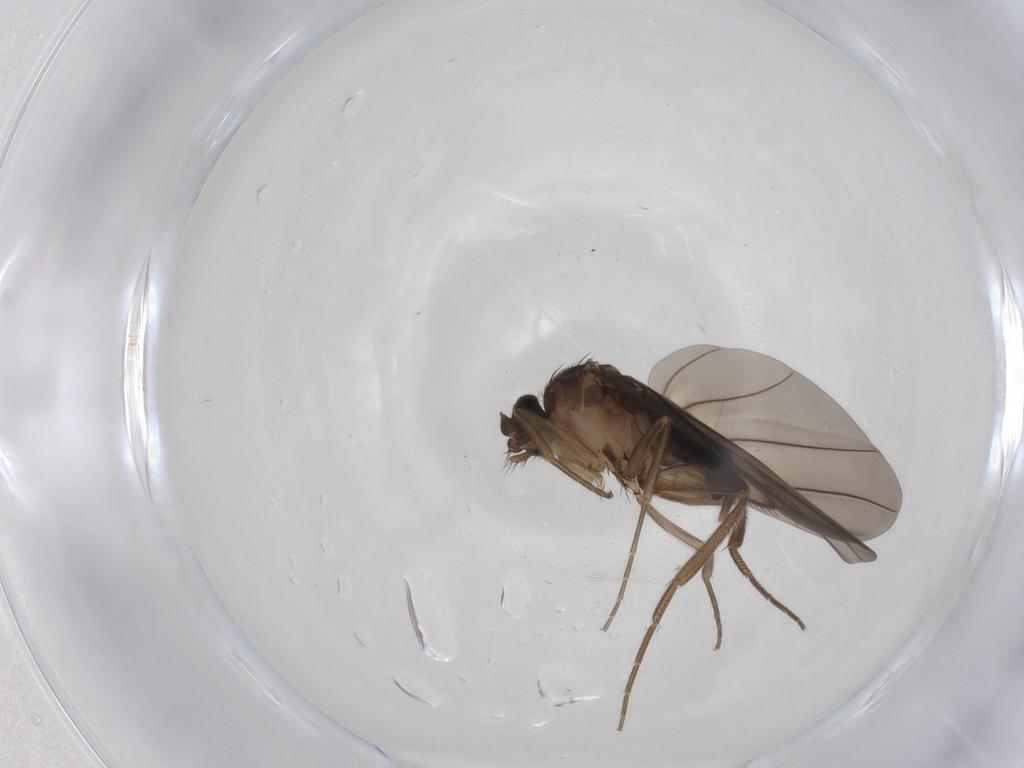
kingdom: Animalia
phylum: Arthropoda
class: Insecta
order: Diptera
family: Phoridae
